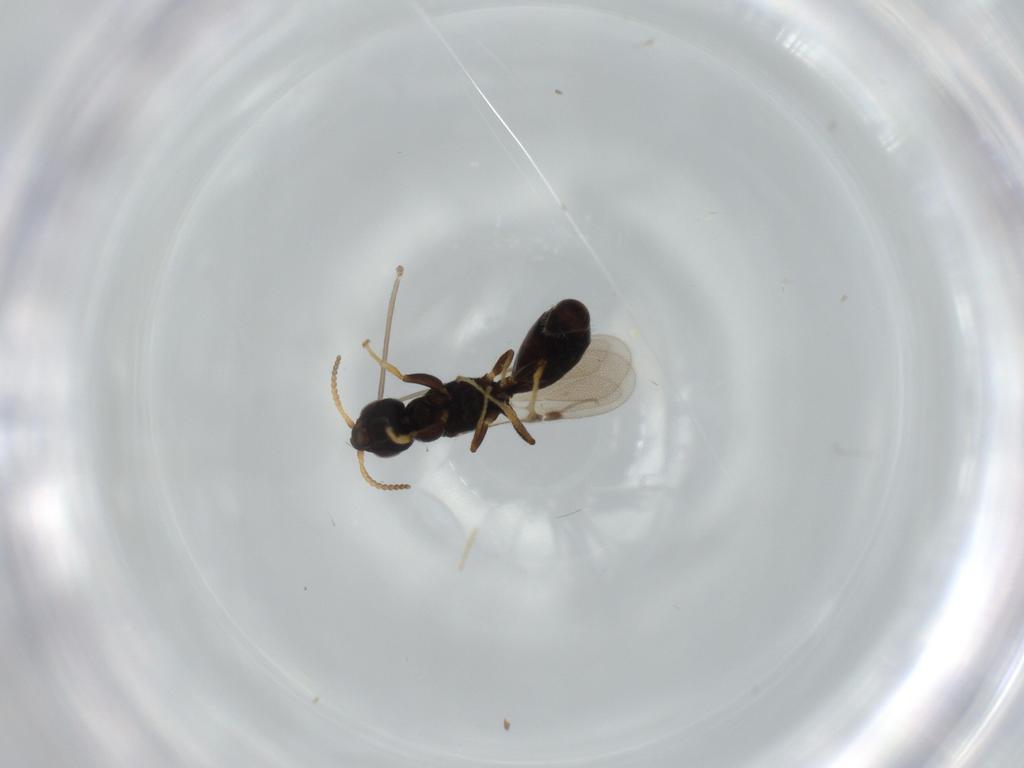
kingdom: Animalia
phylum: Arthropoda
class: Insecta
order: Hymenoptera
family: Bethylidae
